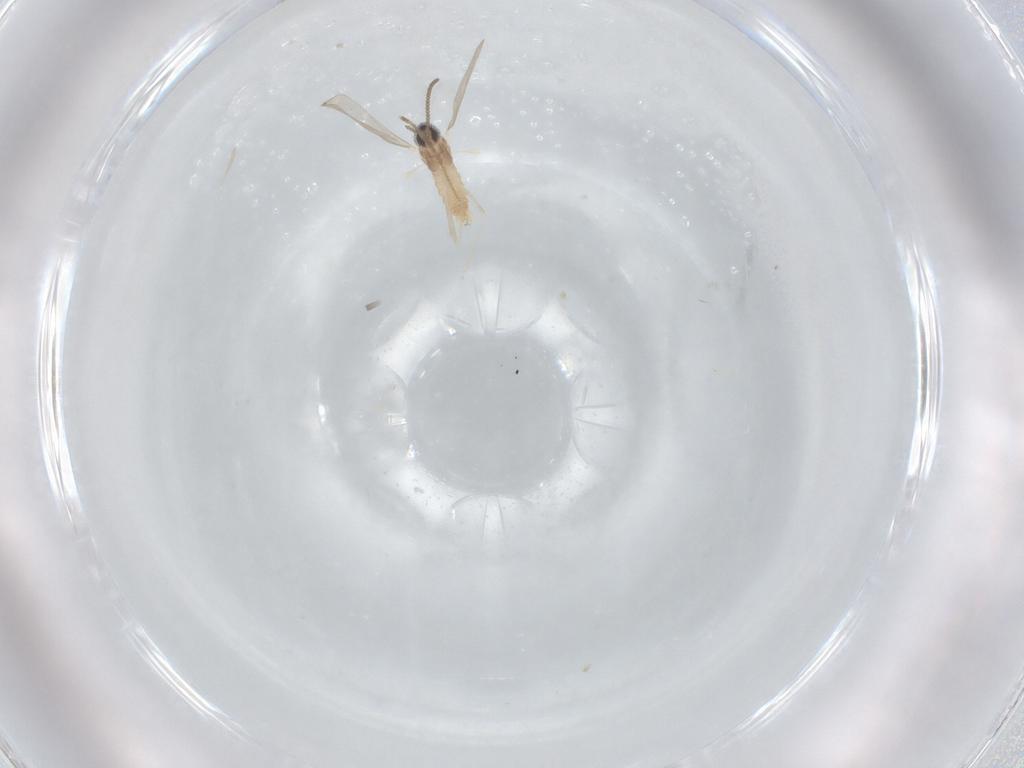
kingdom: Animalia
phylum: Arthropoda
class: Insecta
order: Diptera
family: Cecidomyiidae
